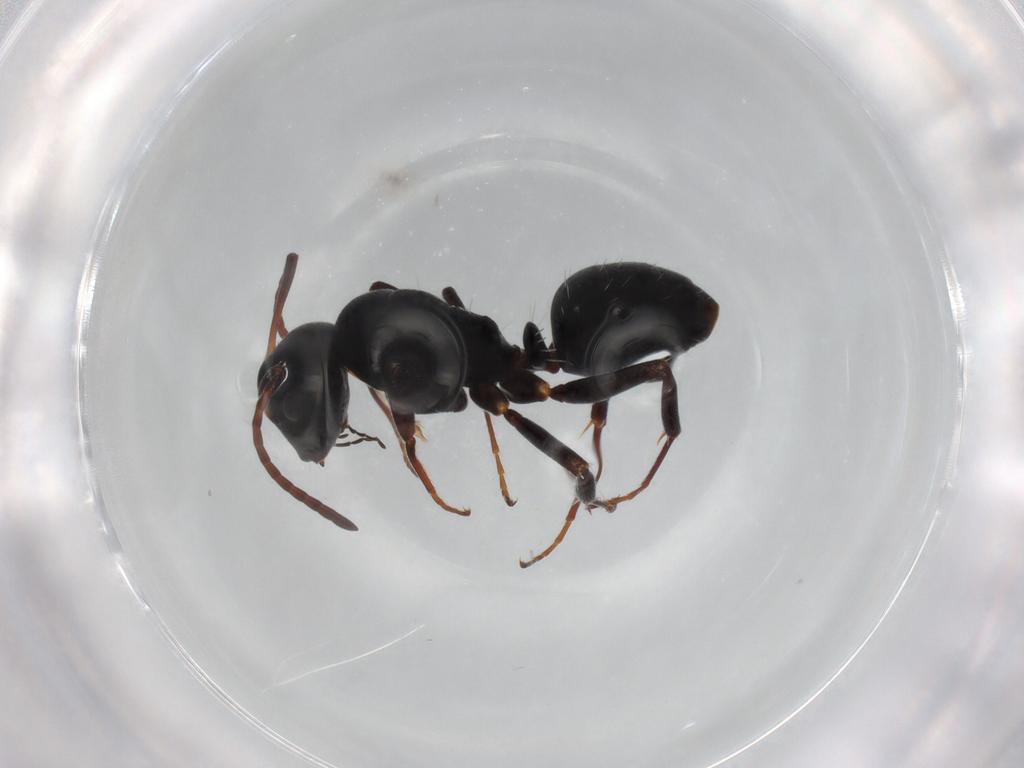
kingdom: Animalia
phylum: Arthropoda
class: Insecta
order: Hymenoptera
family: Formicidae
